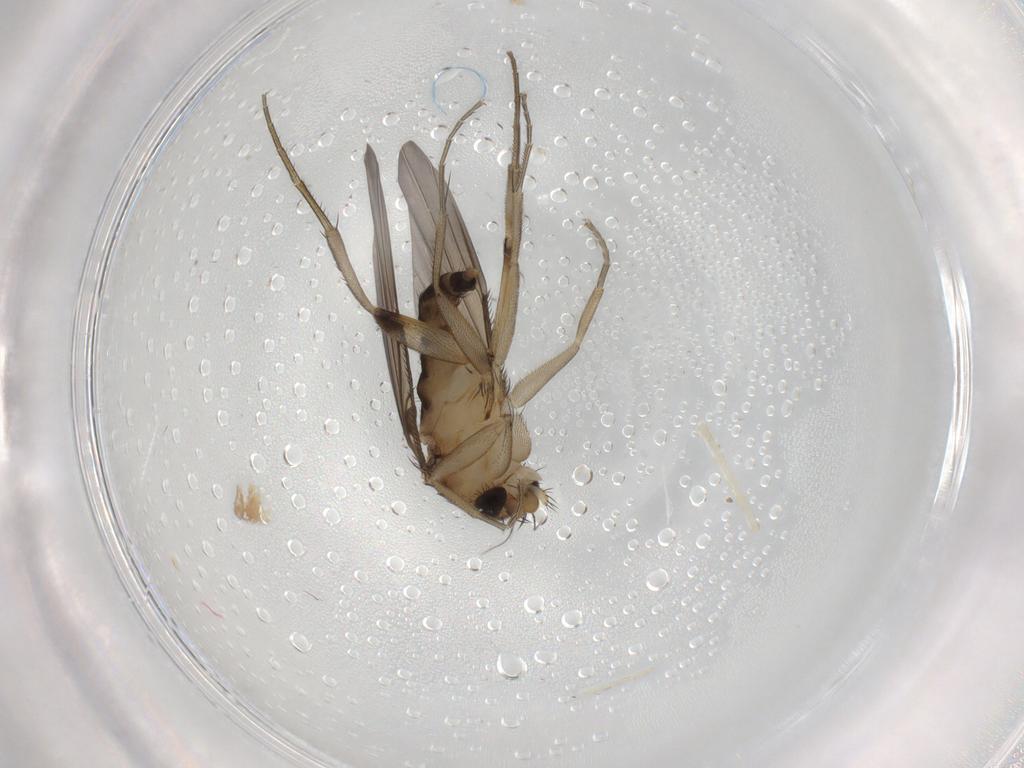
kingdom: Animalia
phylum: Arthropoda
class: Insecta
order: Diptera
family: Phoridae
